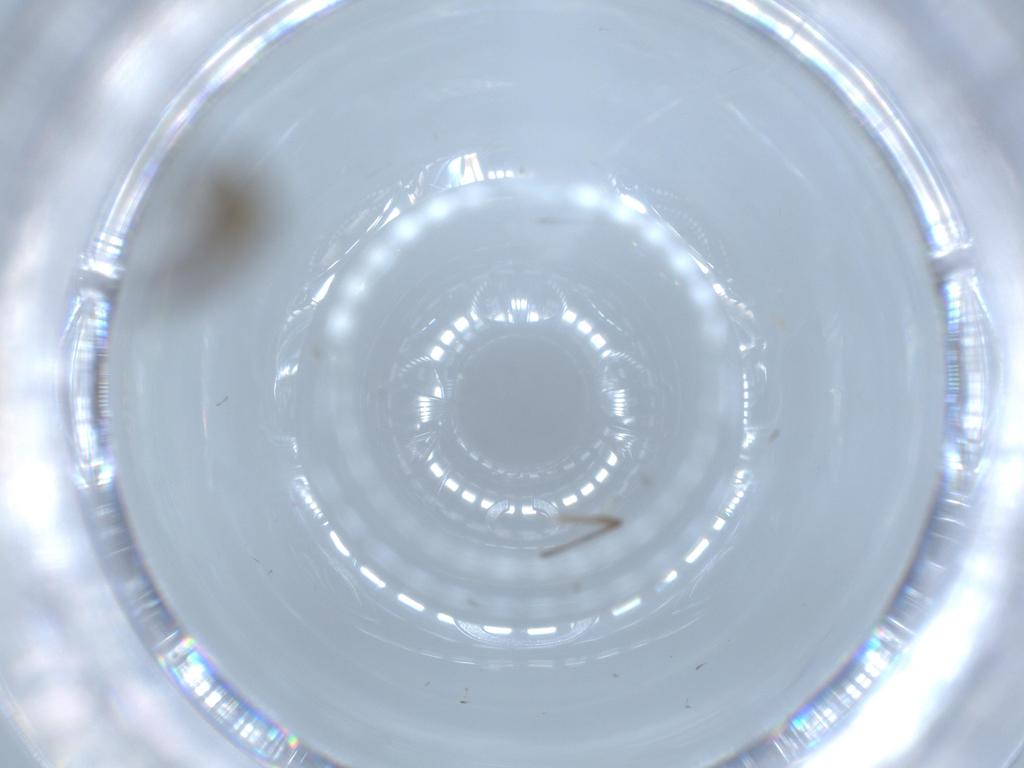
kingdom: Animalia
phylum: Arthropoda
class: Insecta
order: Diptera
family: Chironomidae
